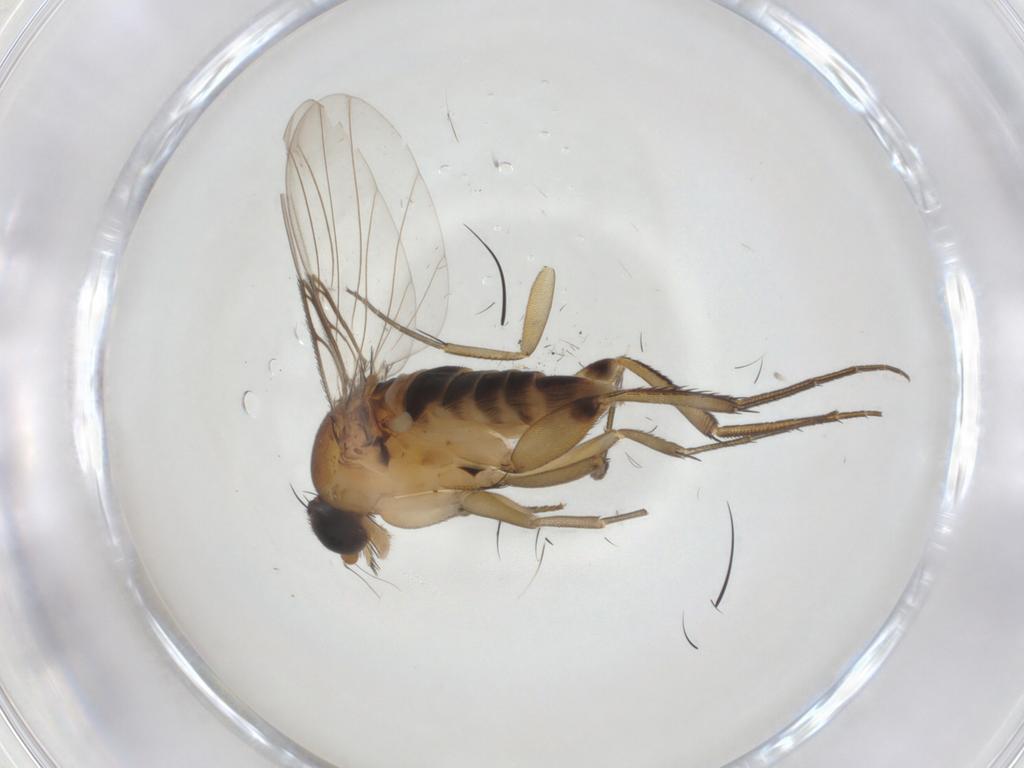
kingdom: Animalia
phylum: Arthropoda
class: Insecta
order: Diptera
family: Phoridae
